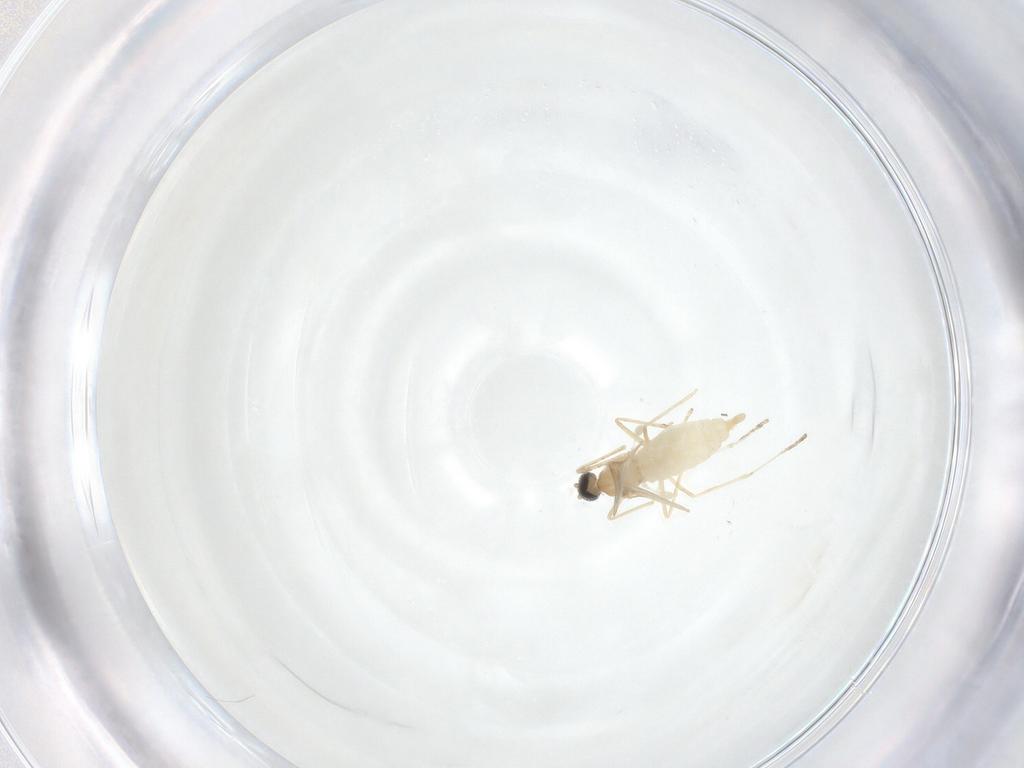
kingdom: Animalia
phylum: Arthropoda
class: Insecta
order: Diptera
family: Cecidomyiidae
